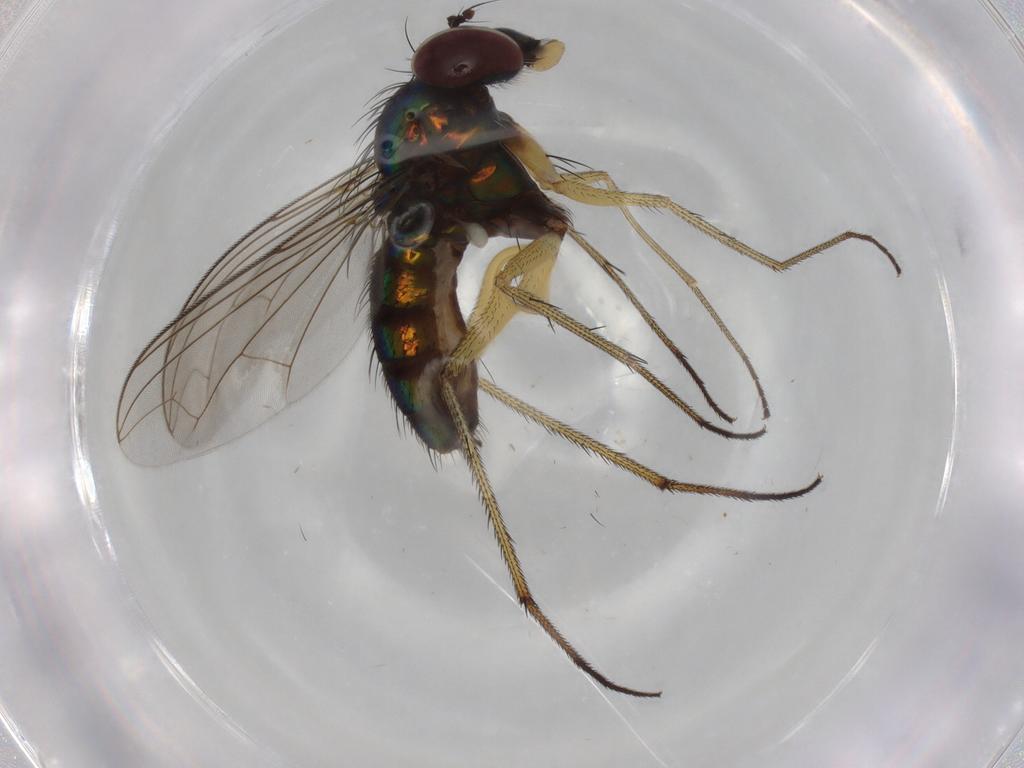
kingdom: Animalia
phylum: Arthropoda
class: Insecta
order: Diptera
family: Dolichopodidae
